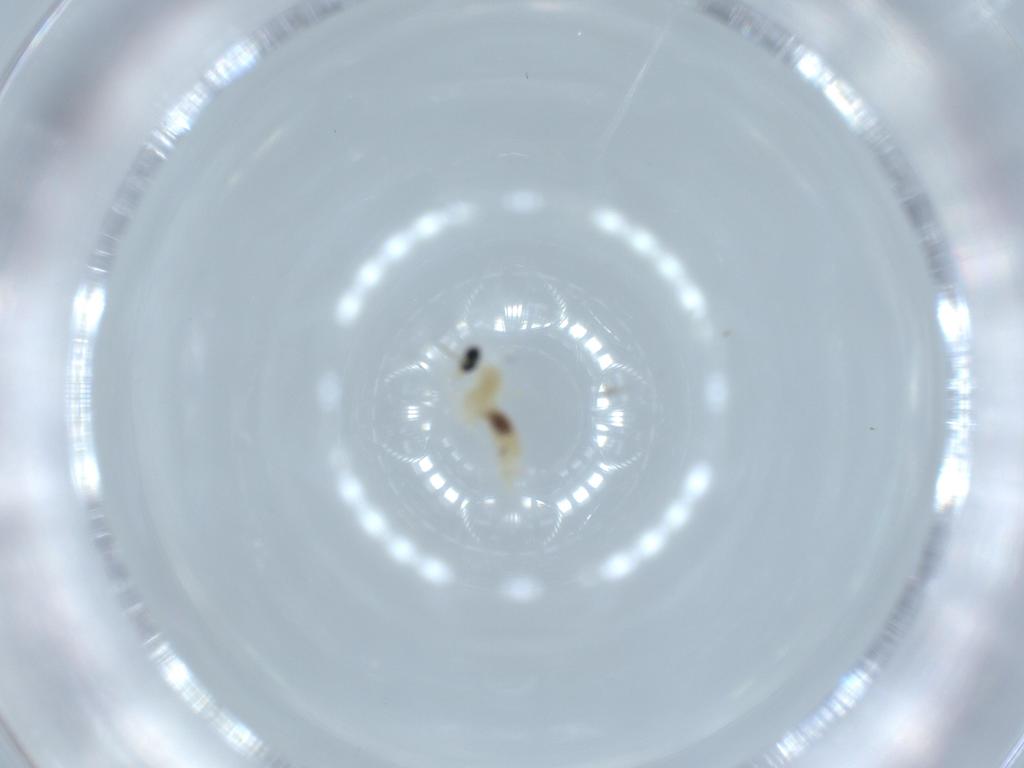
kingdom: Animalia
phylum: Arthropoda
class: Insecta
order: Diptera
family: Cecidomyiidae
